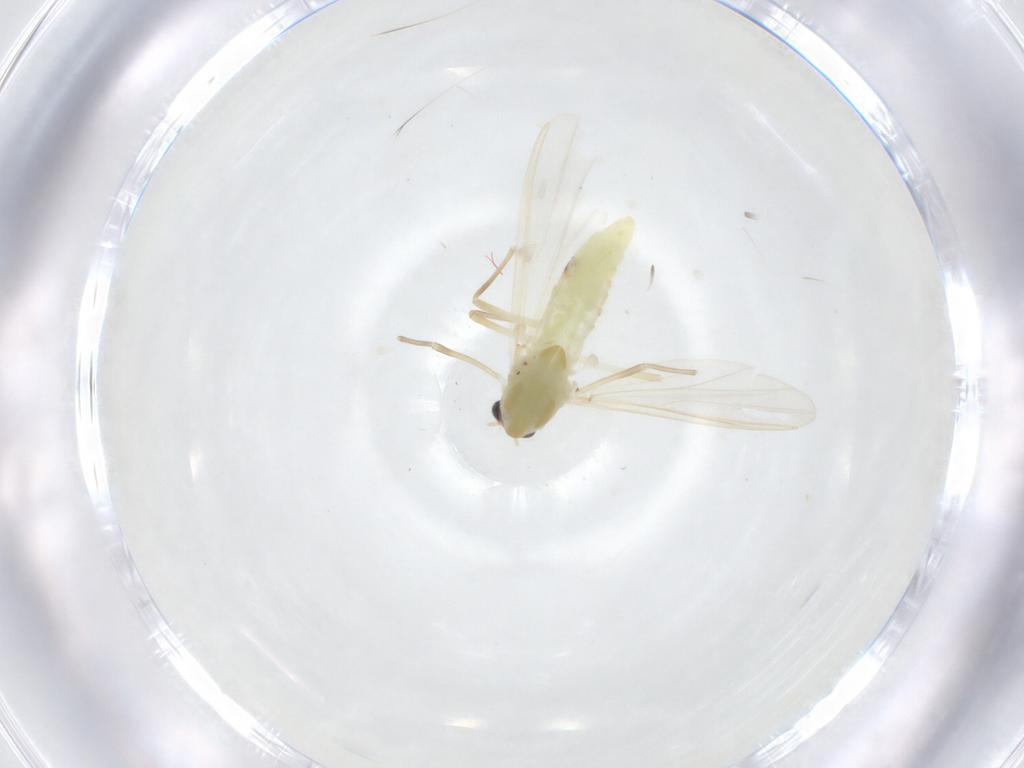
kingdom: Animalia
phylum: Arthropoda
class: Insecta
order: Diptera
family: Chironomidae
